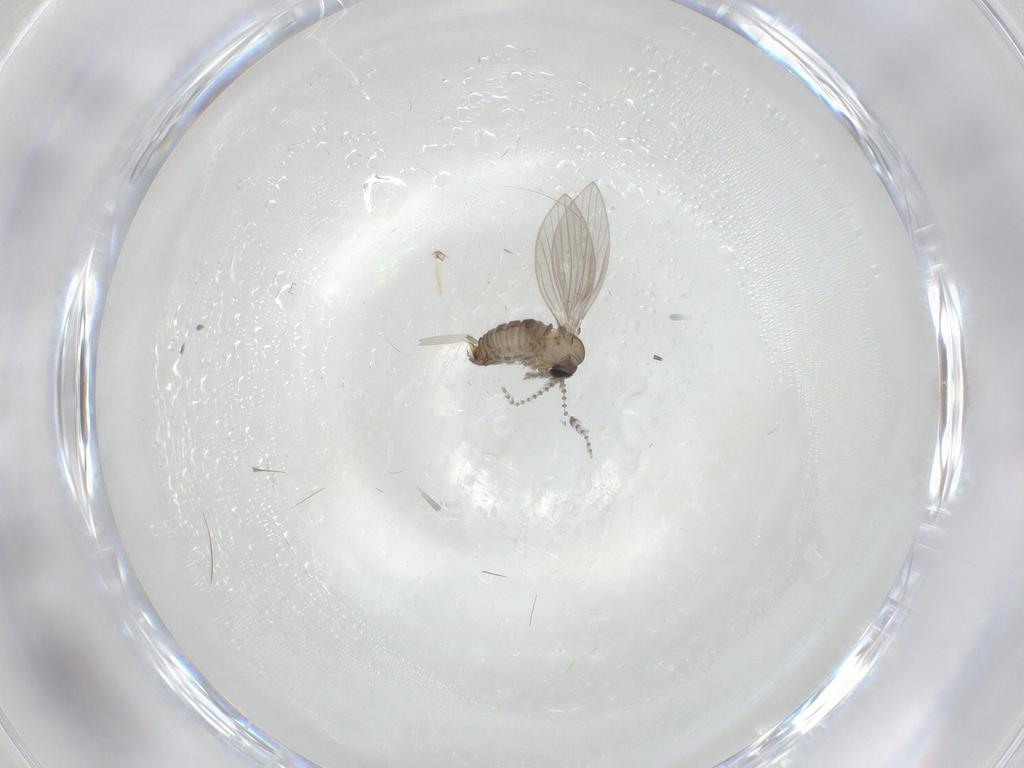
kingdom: Animalia
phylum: Arthropoda
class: Insecta
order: Diptera
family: Psychodidae
